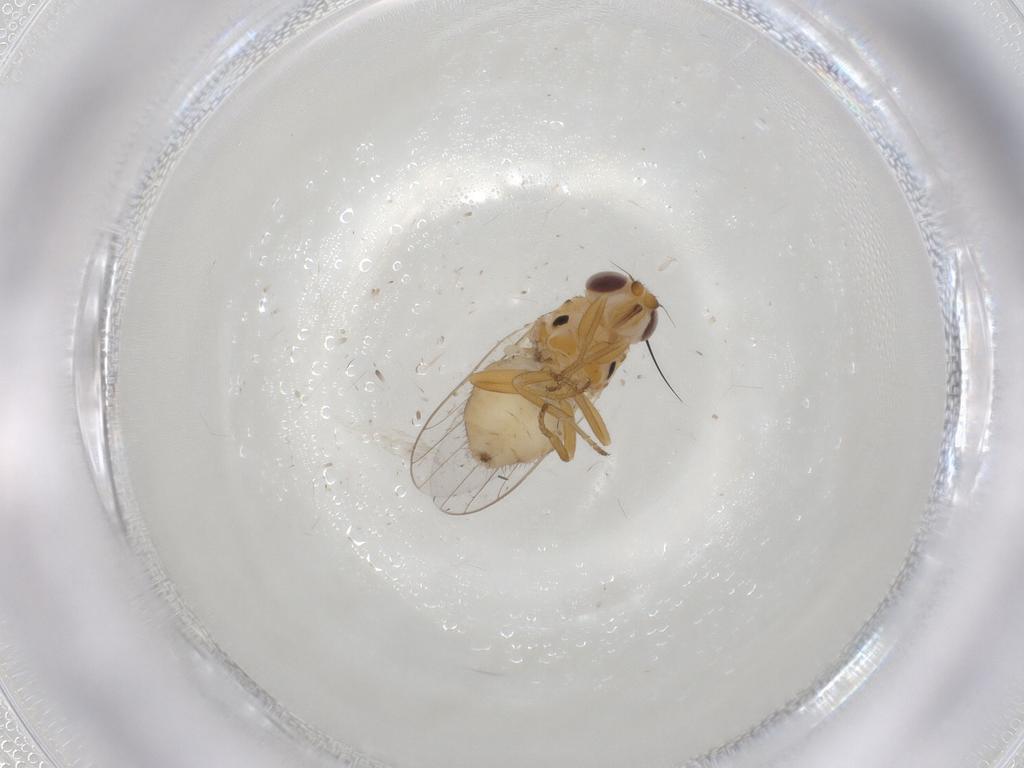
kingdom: Animalia
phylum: Arthropoda
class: Insecta
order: Diptera
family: Chloropidae
